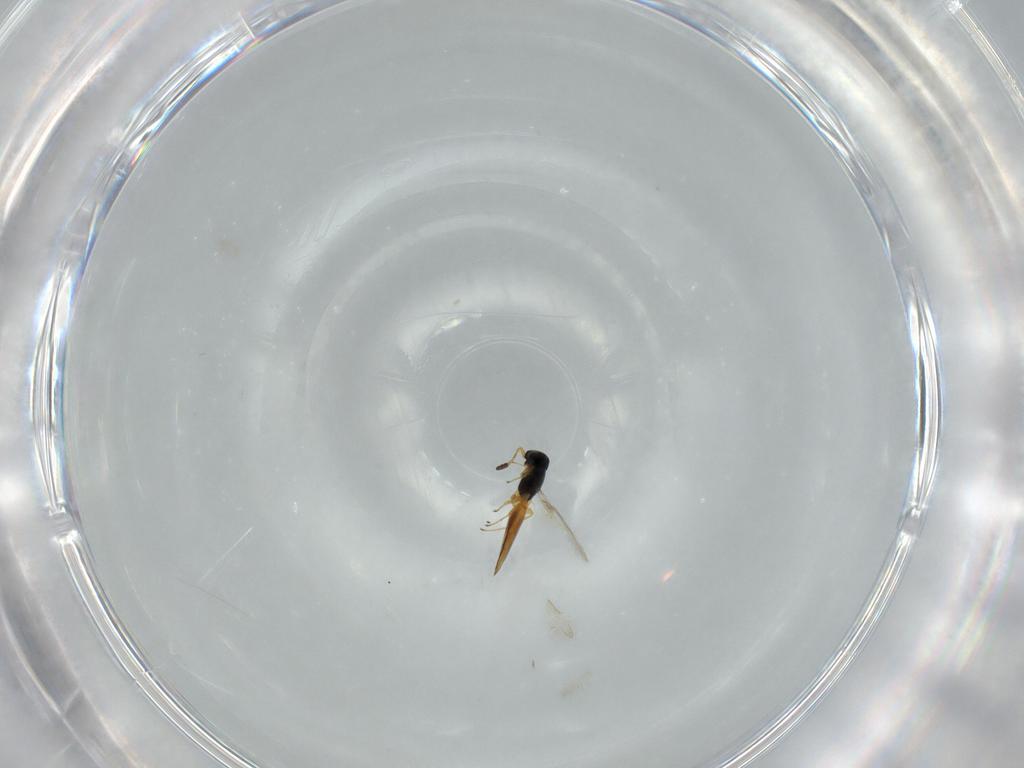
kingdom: Animalia
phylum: Arthropoda
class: Insecta
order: Hymenoptera
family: Scelionidae
